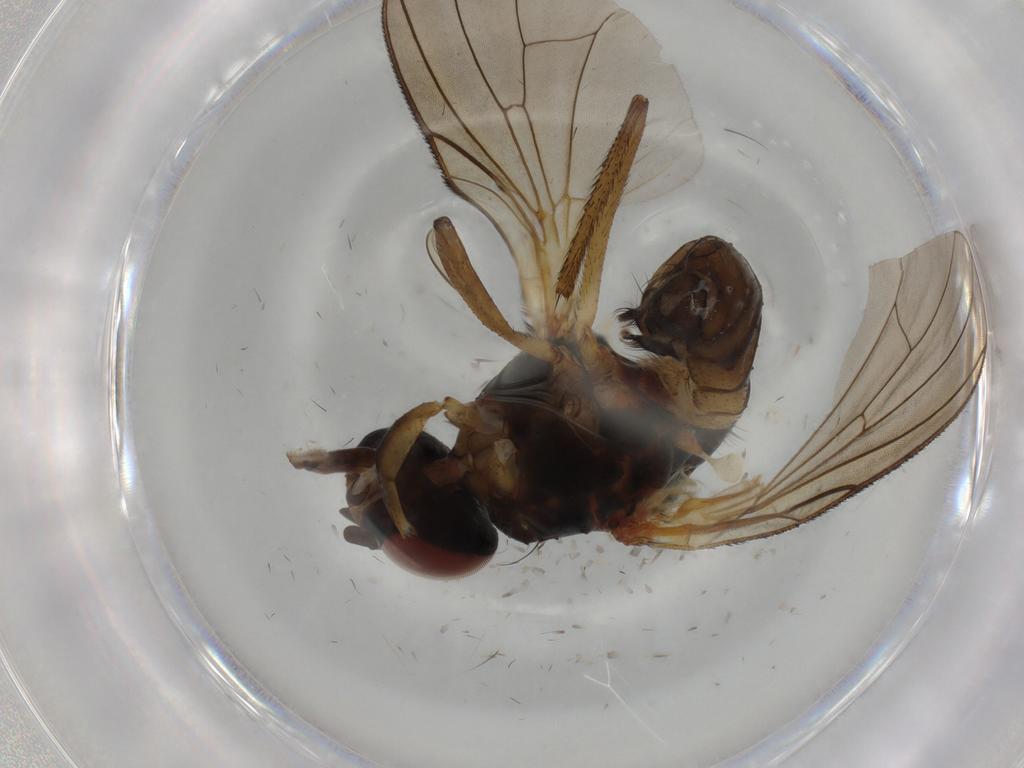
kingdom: Animalia
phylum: Arthropoda
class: Insecta
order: Diptera
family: Anthomyiidae
